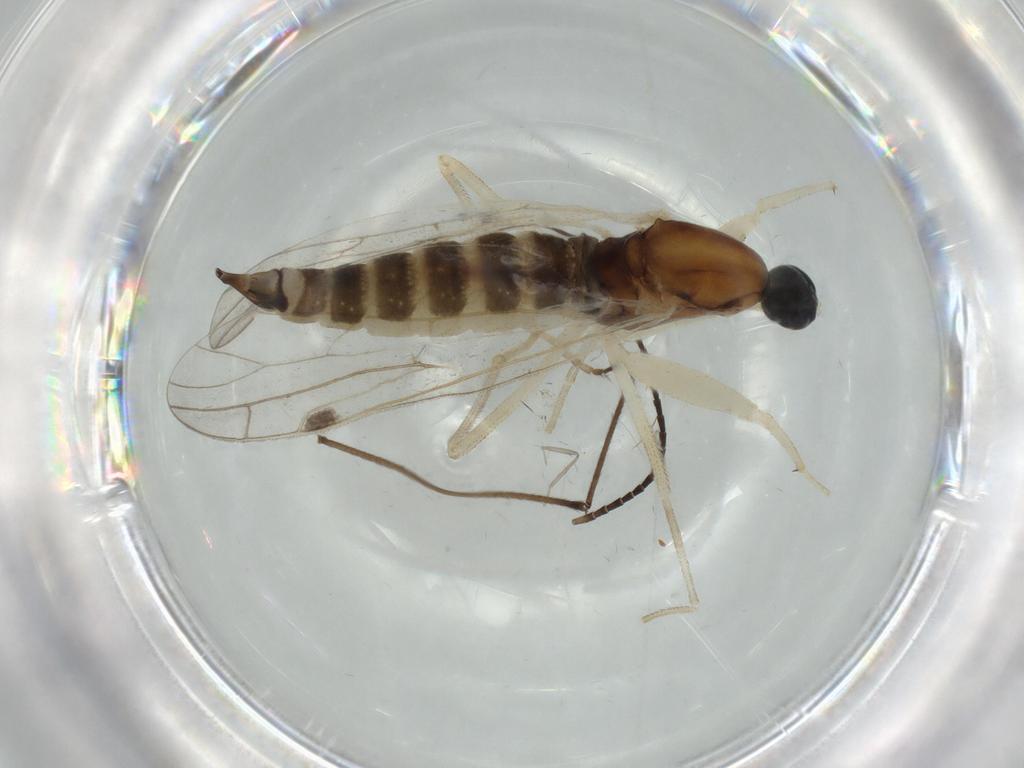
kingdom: Animalia
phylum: Arthropoda
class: Insecta
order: Diptera
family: Empididae
